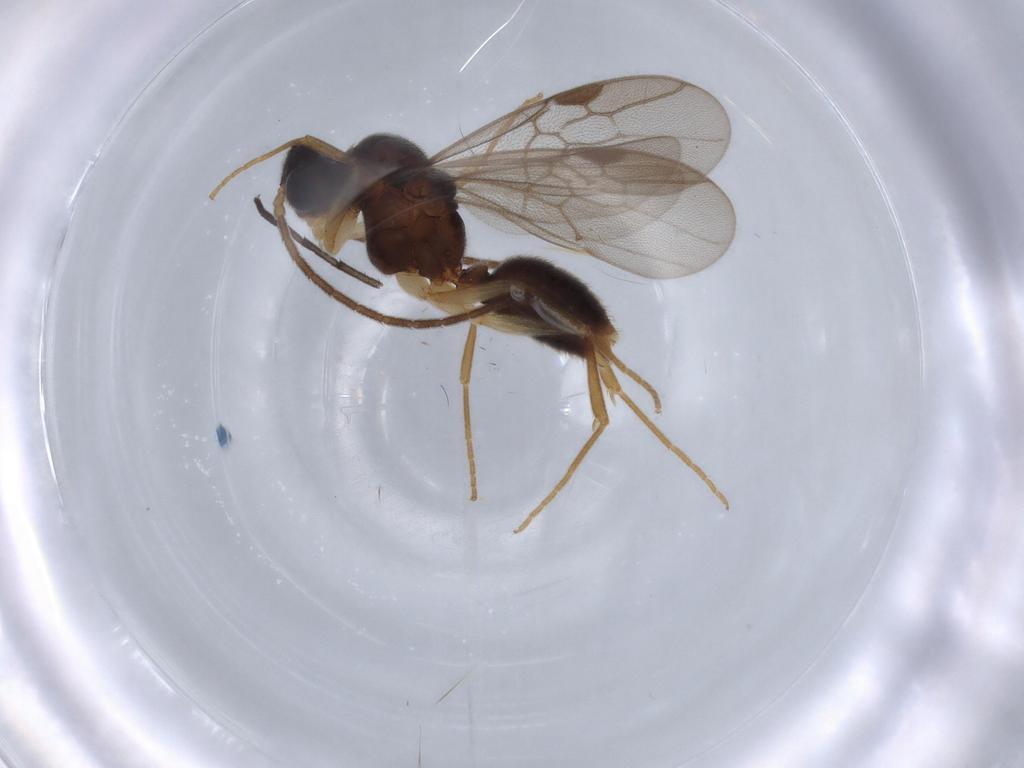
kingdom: Animalia
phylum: Arthropoda
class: Insecta
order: Hymenoptera
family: Formicidae
